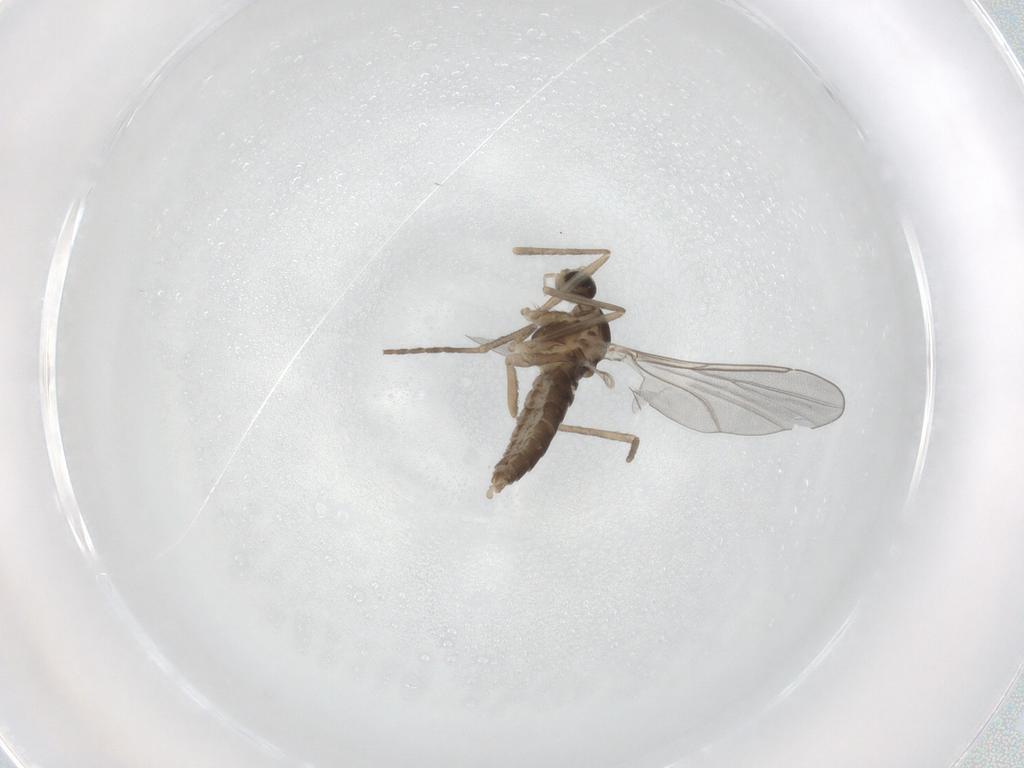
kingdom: Animalia
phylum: Arthropoda
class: Insecta
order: Diptera
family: Cecidomyiidae
